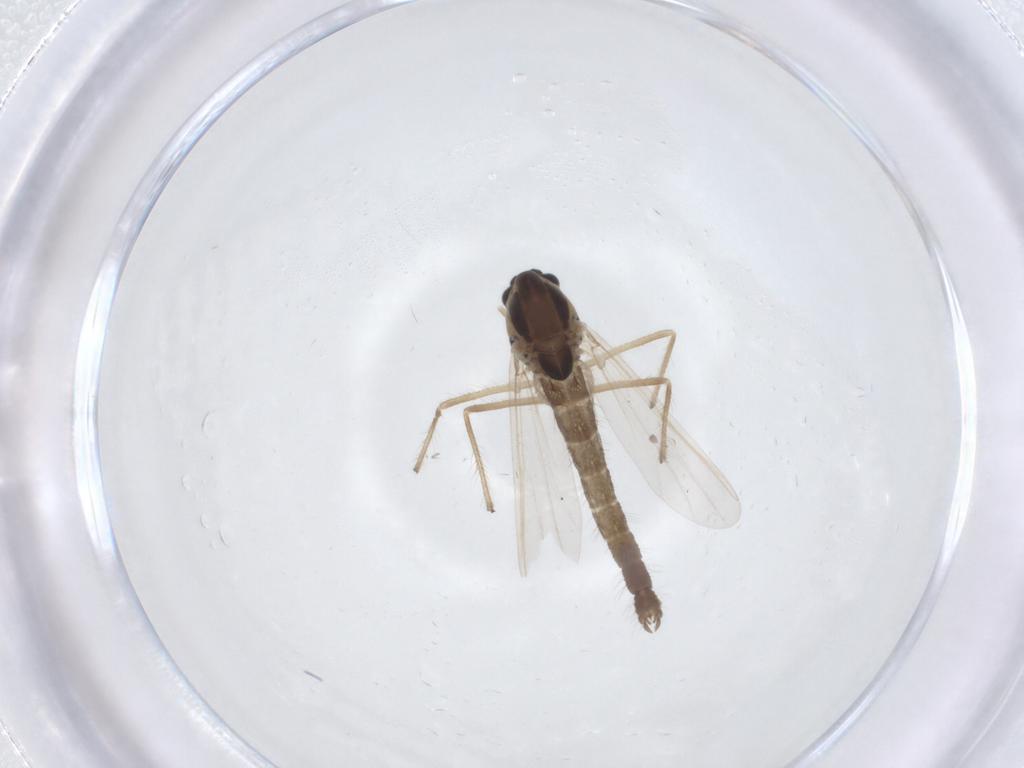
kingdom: Animalia
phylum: Arthropoda
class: Insecta
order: Diptera
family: Chironomidae
